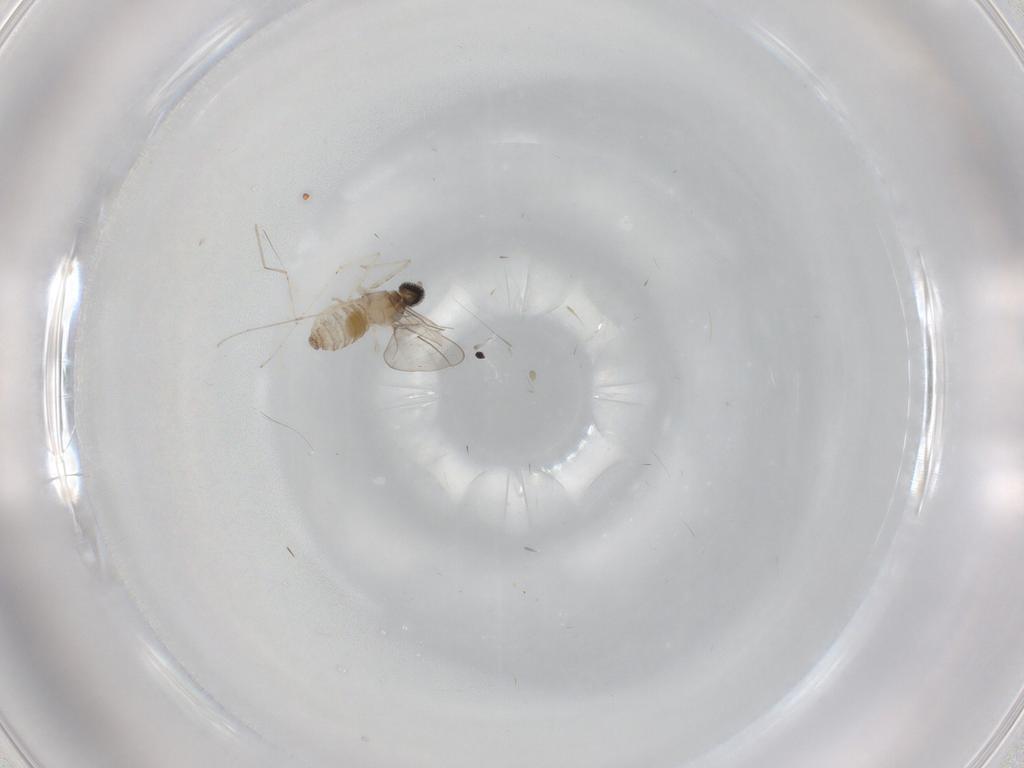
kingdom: Animalia
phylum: Arthropoda
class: Insecta
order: Diptera
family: Cecidomyiidae
